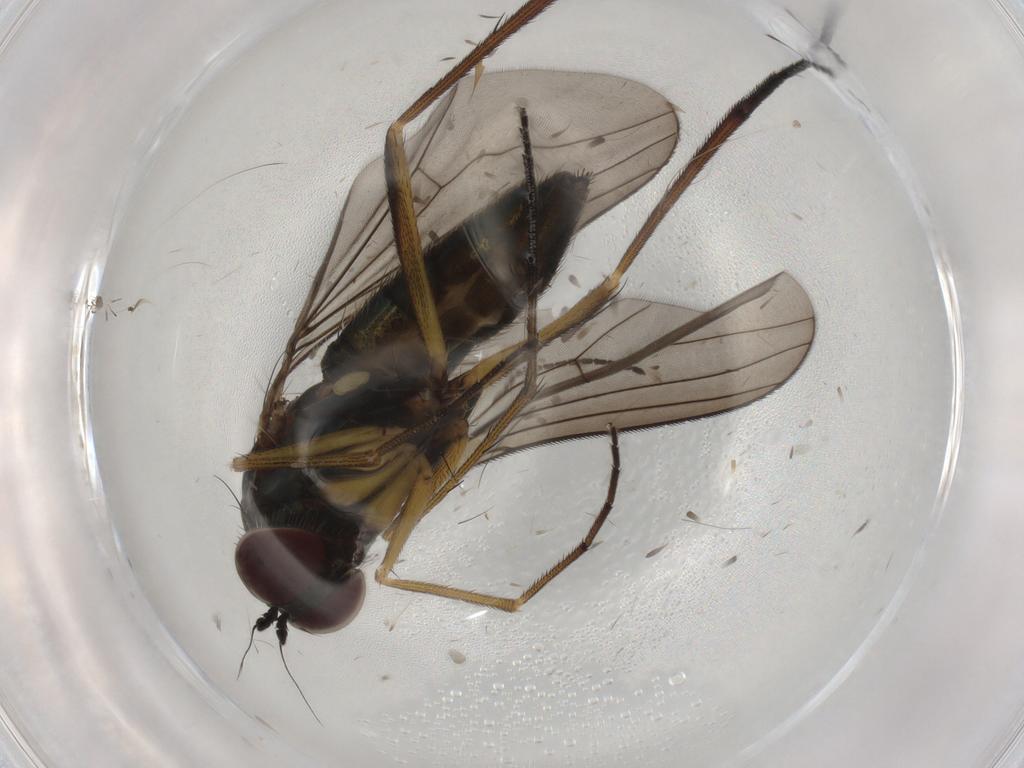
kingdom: Animalia
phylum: Arthropoda
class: Insecta
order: Diptera
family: Dolichopodidae
